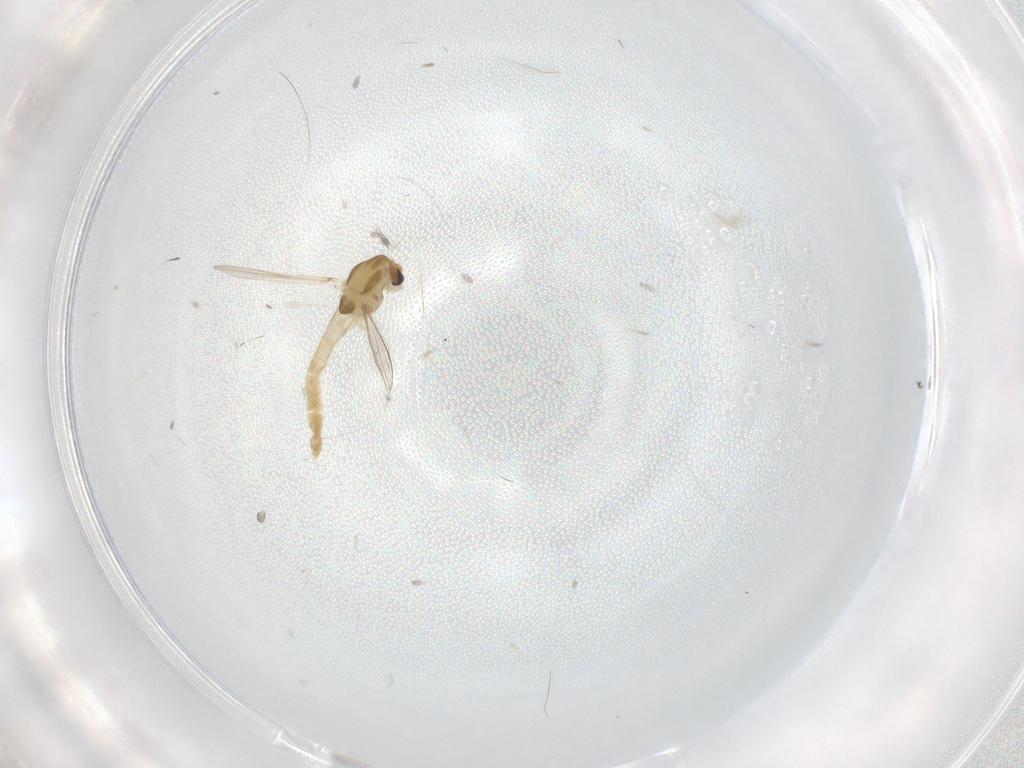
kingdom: Animalia
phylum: Arthropoda
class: Insecta
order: Diptera
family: Chironomidae
